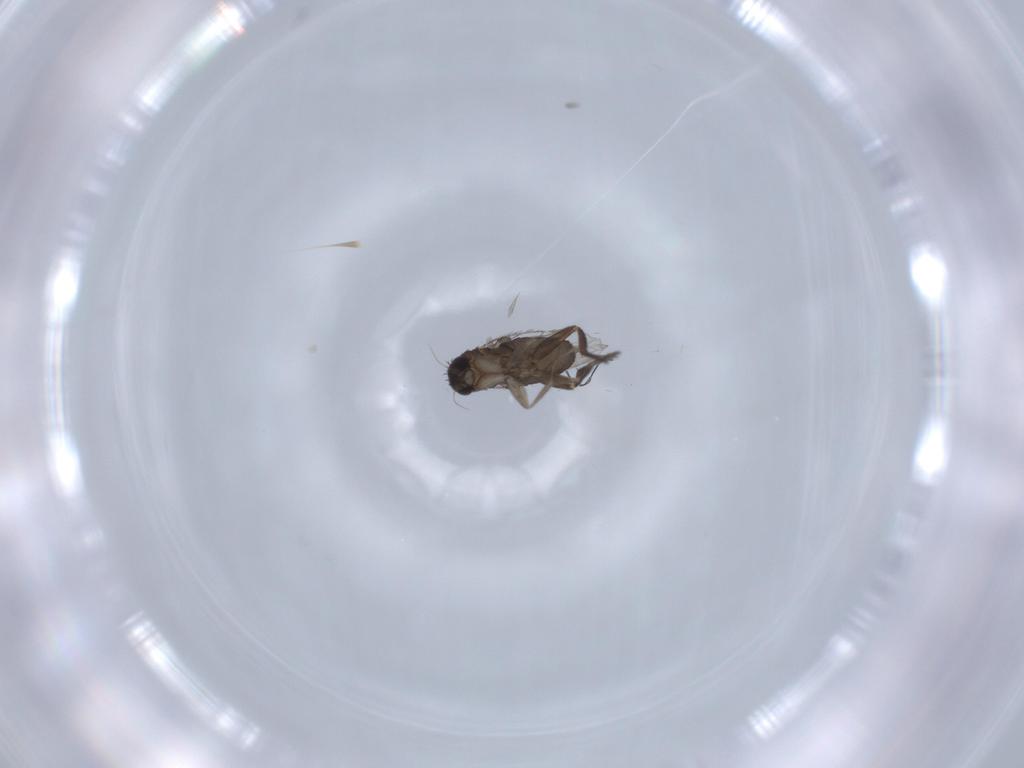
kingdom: Animalia
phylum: Arthropoda
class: Insecta
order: Diptera
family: Phoridae
